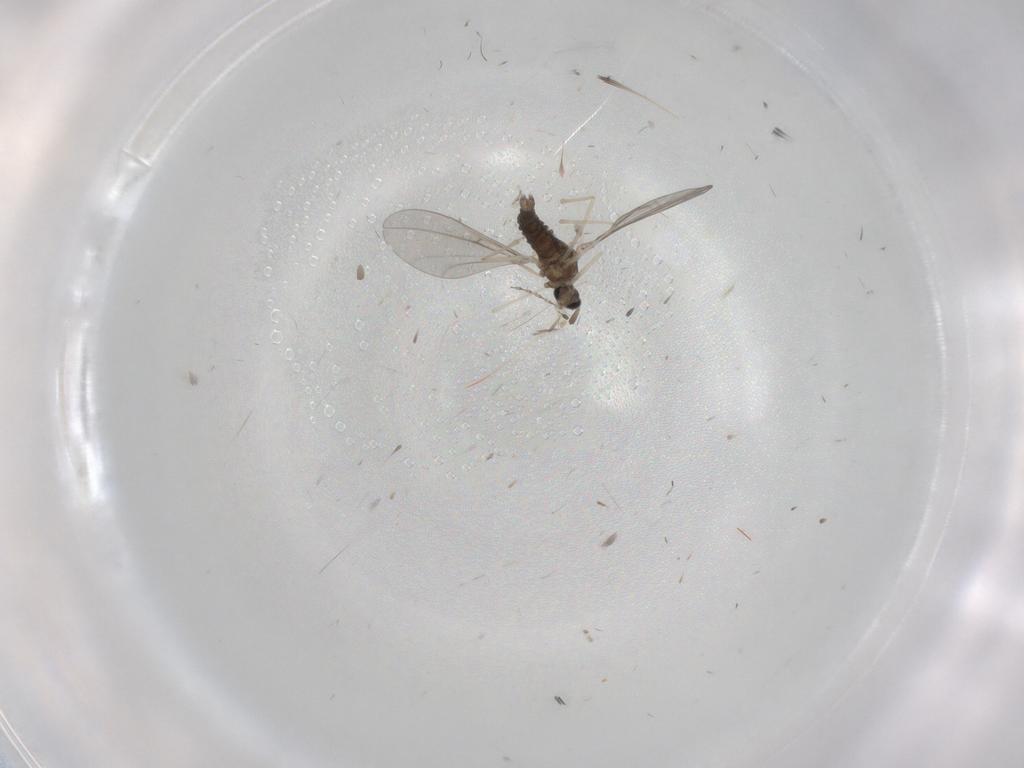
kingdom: Animalia
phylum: Arthropoda
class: Insecta
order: Diptera
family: Cecidomyiidae
